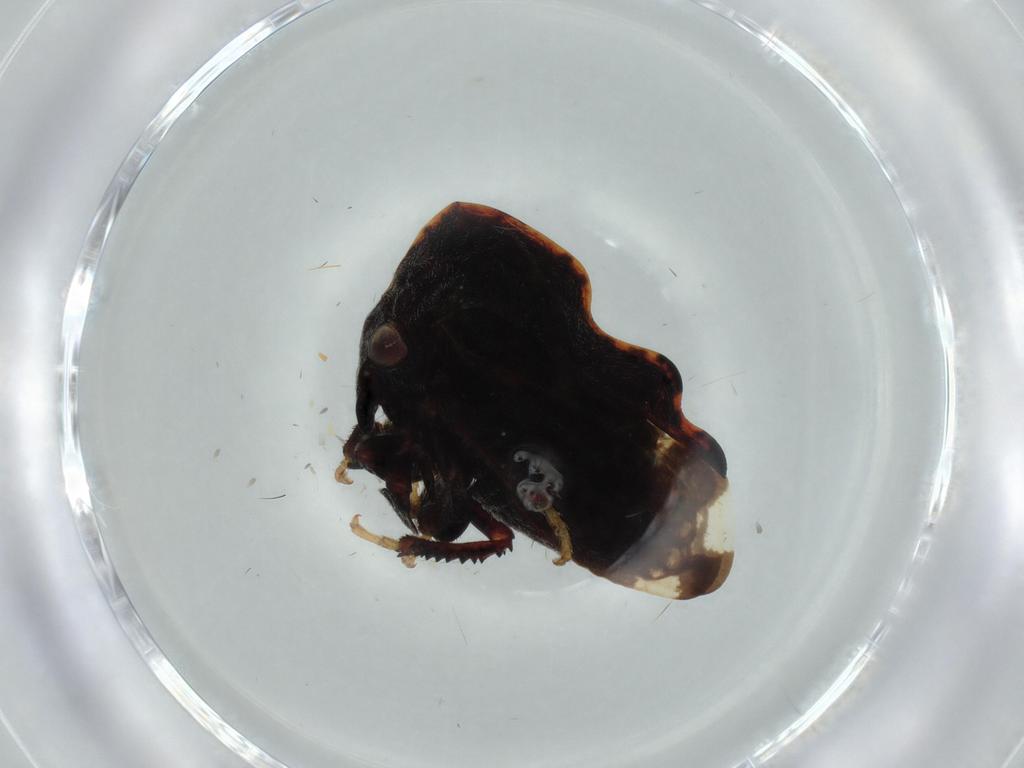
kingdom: Animalia
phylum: Arthropoda
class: Insecta
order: Hemiptera
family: Aleyrodidae
